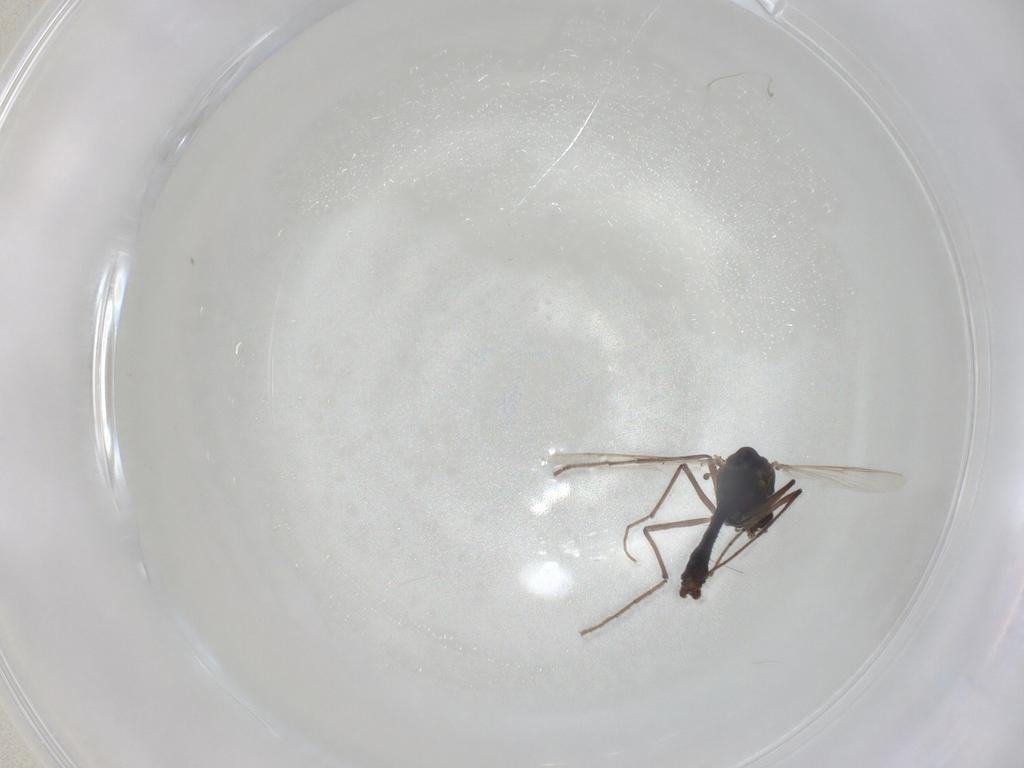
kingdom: Animalia
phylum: Arthropoda
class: Insecta
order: Diptera
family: Chironomidae
